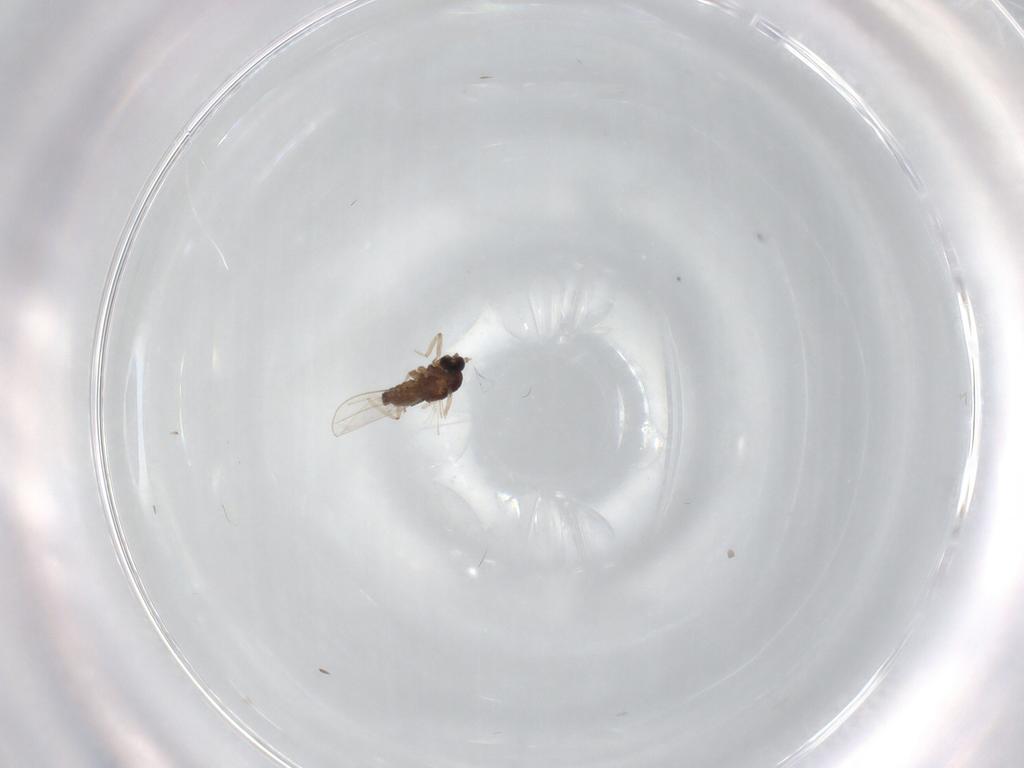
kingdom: Animalia
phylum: Arthropoda
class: Insecta
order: Diptera
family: Cecidomyiidae
